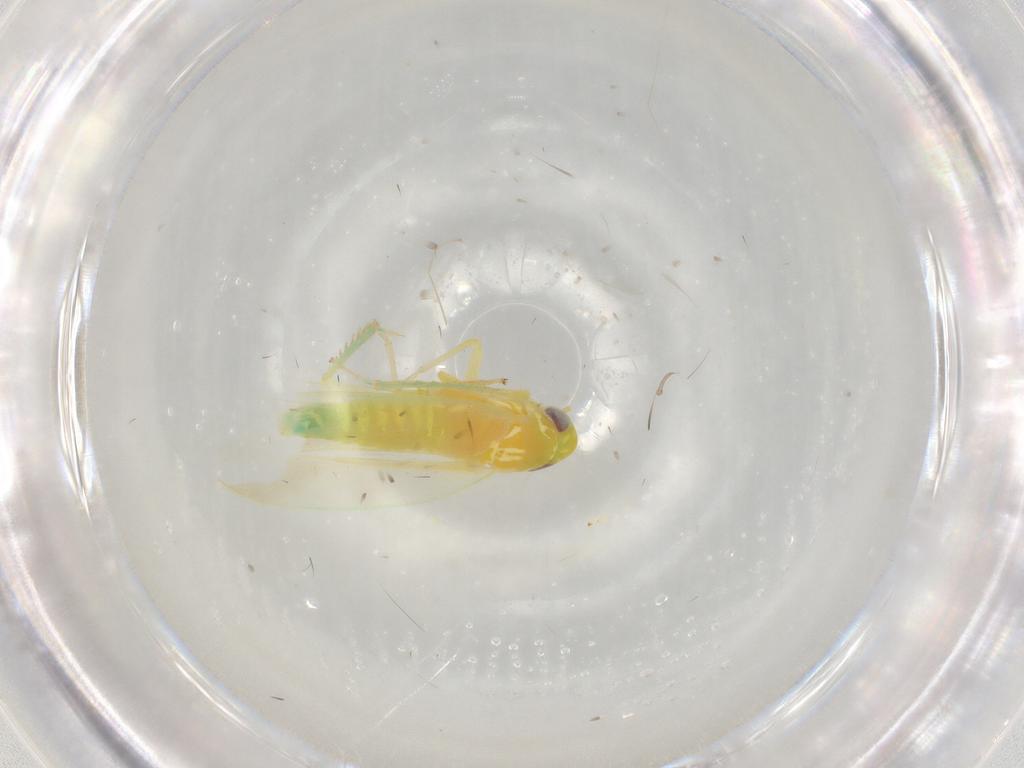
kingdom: Animalia
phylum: Arthropoda
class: Insecta
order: Hemiptera
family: Cicadellidae
